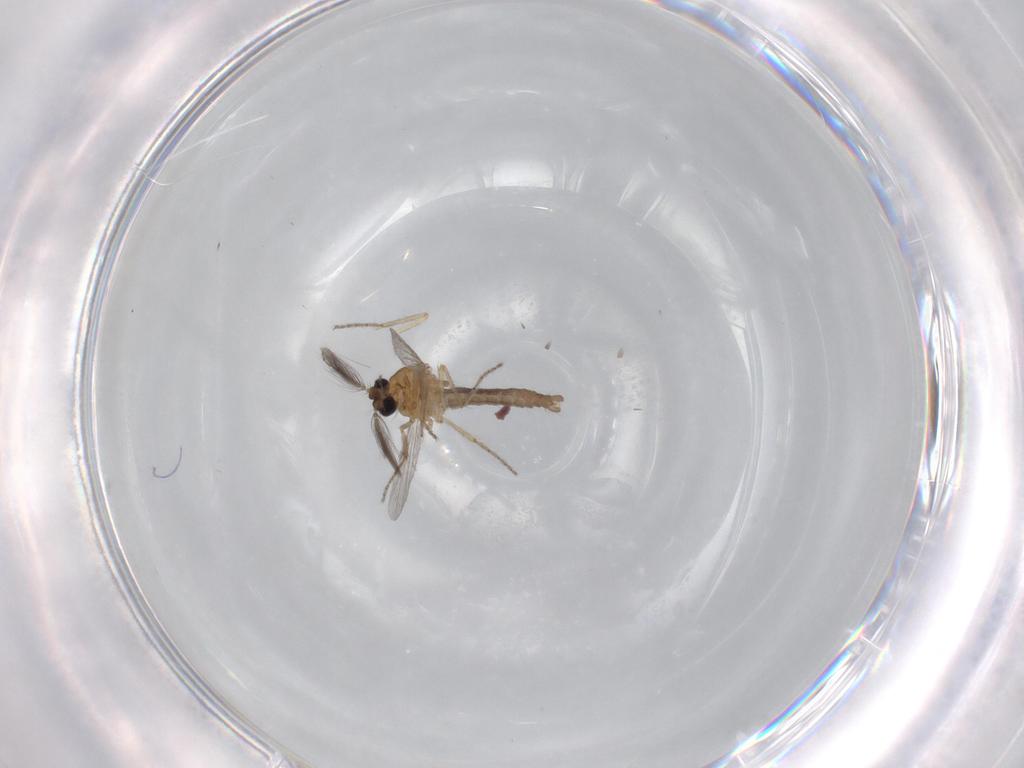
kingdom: Animalia
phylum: Arthropoda
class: Insecta
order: Diptera
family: Ceratopogonidae
